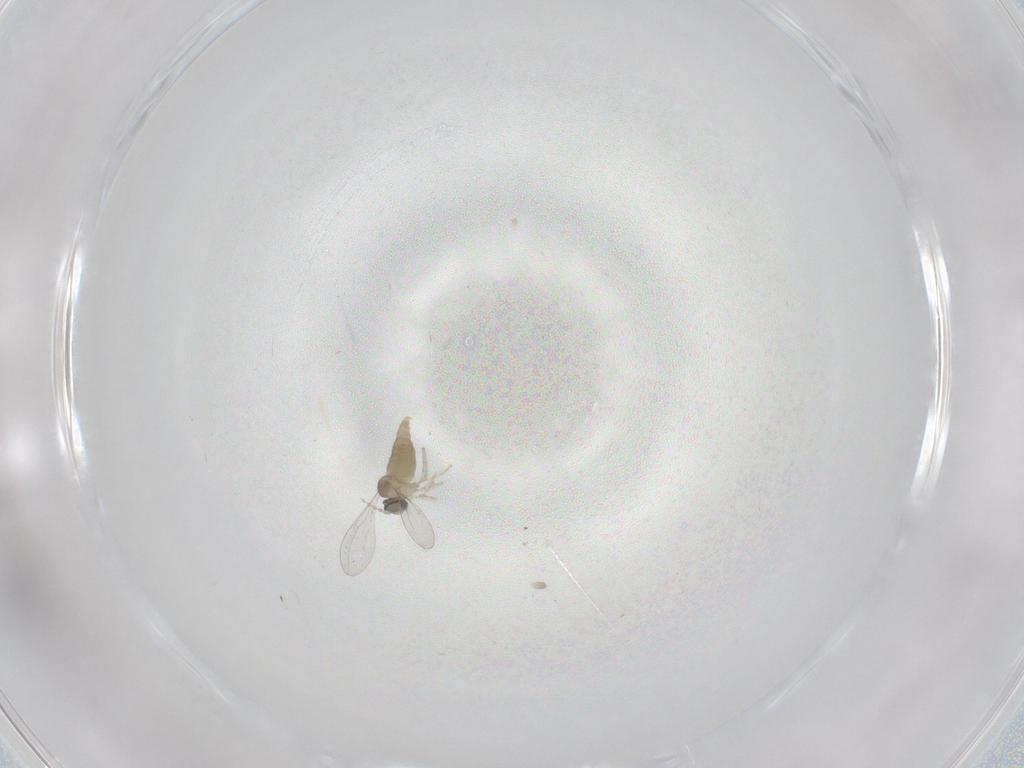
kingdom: Animalia
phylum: Arthropoda
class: Insecta
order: Diptera
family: Cecidomyiidae
